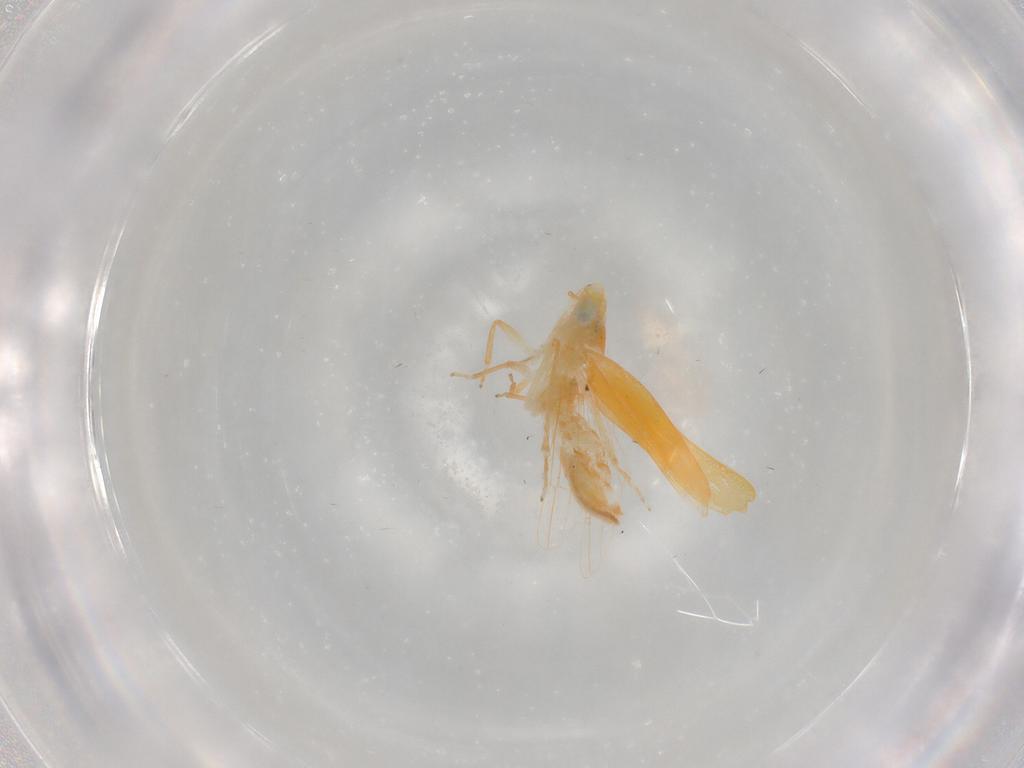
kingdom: Animalia
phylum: Arthropoda
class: Insecta
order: Hemiptera
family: Cicadellidae
